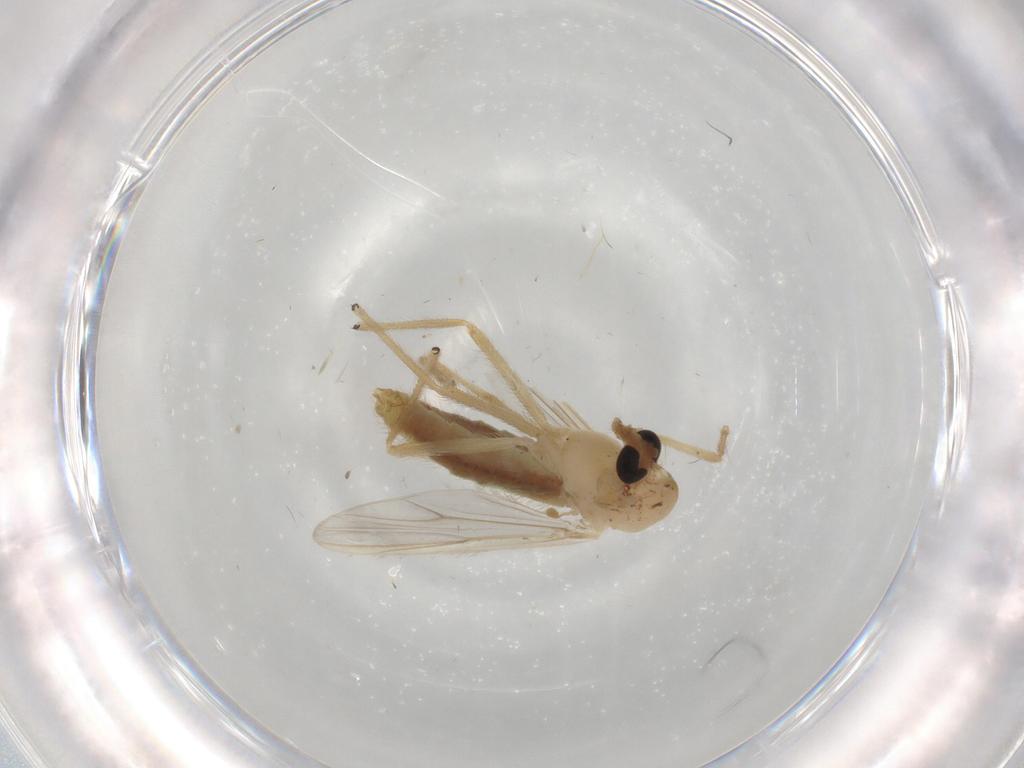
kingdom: Animalia
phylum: Arthropoda
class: Insecta
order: Diptera
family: Chironomidae
